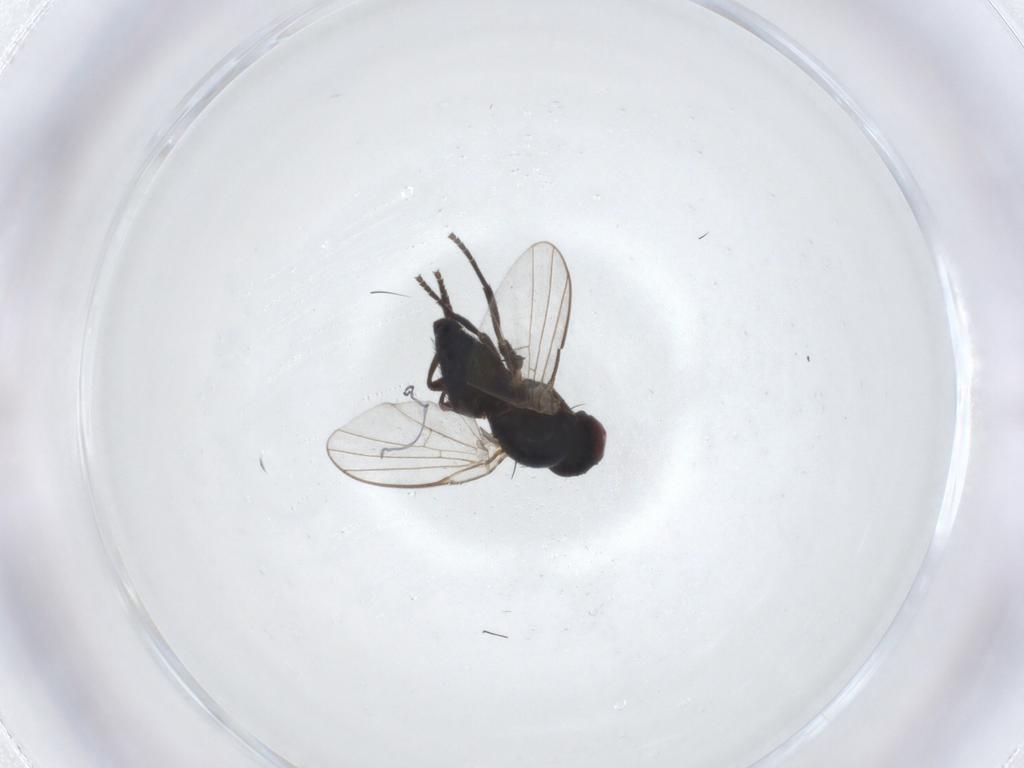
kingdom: Animalia
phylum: Arthropoda
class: Insecta
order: Diptera
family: Agromyzidae
